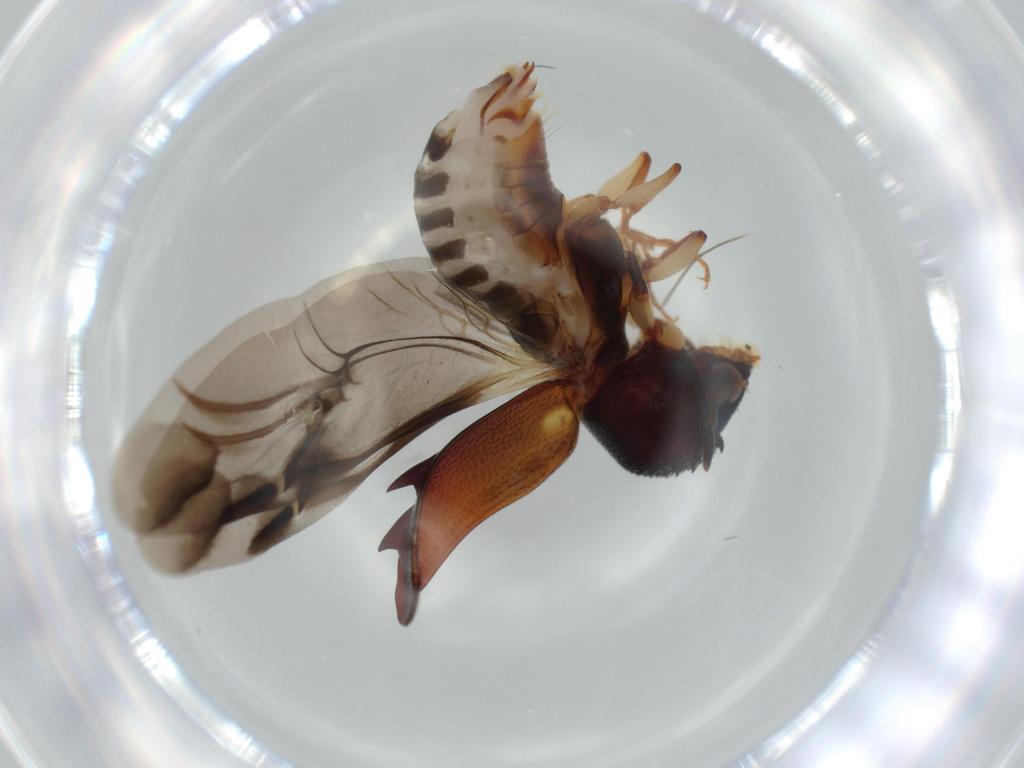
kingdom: Animalia
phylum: Arthropoda
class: Insecta
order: Coleoptera
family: Bostrichidae
